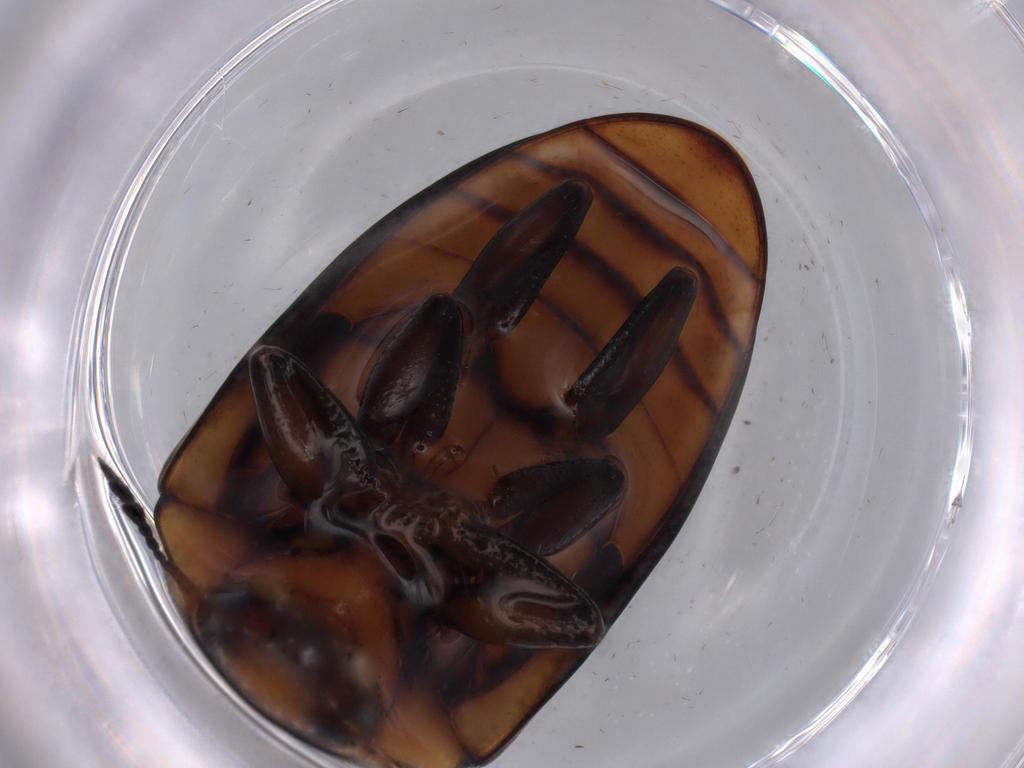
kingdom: Animalia
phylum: Arthropoda
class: Insecta
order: Coleoptera
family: Erotylidae
